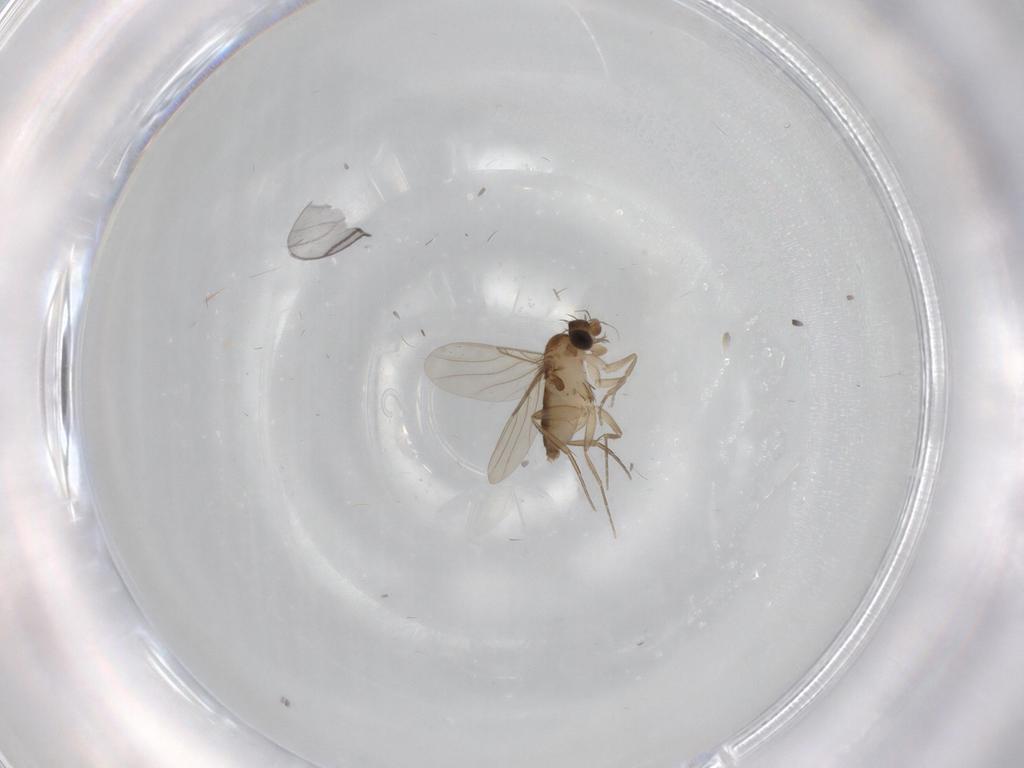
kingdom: Animalia
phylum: Arthropoda
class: Insecta
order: Diptera
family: Phoridae
